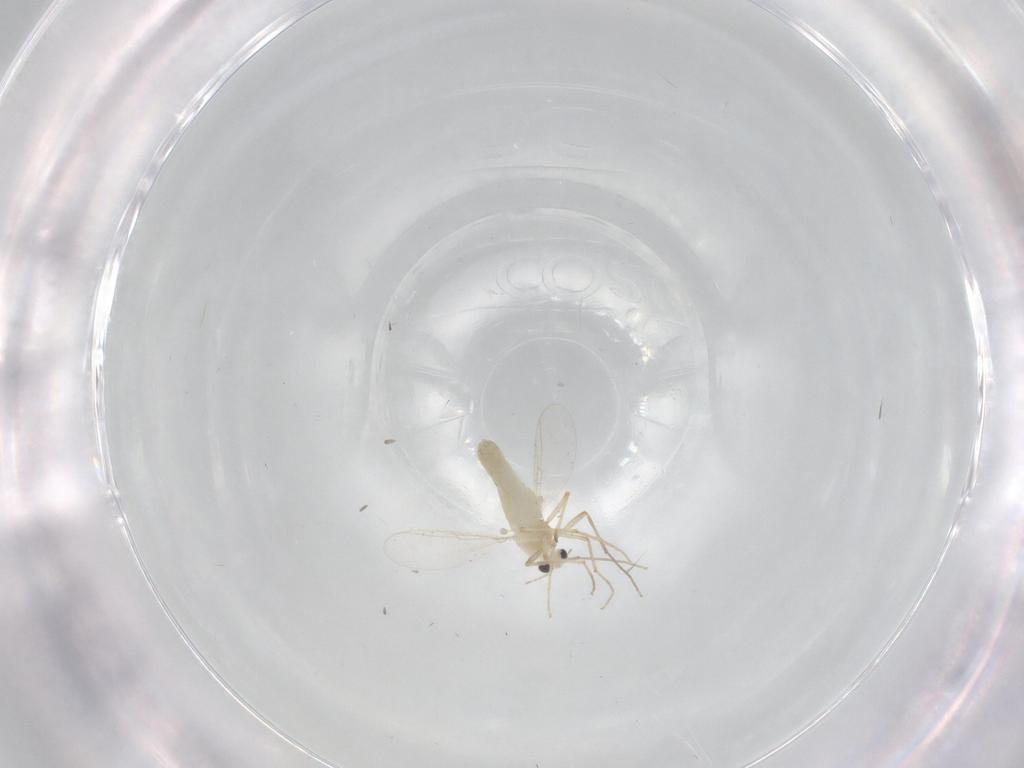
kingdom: Animalia
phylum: Arthropoda
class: Insecta
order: Diptera
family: Chironomidae
